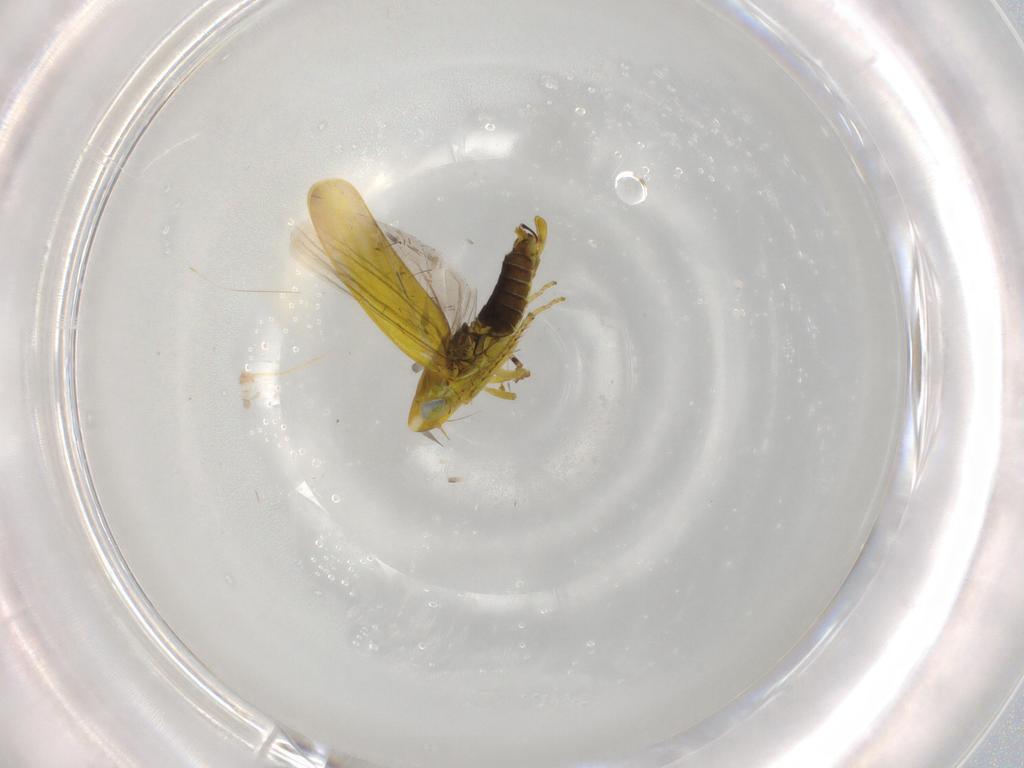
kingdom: Animalia
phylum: Arthropoda
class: Insecta
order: Hemiptera
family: Cicadellidae
